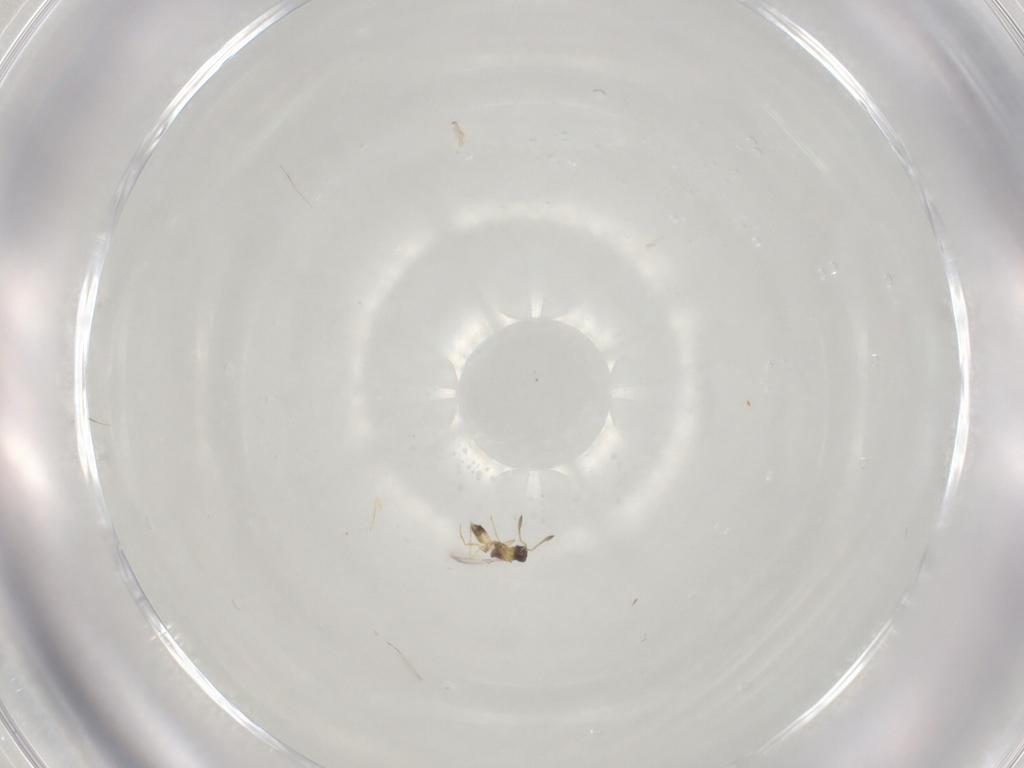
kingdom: Animalia
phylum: Arthropoda
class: Insecta
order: Hymenoptera
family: Mymaridae
